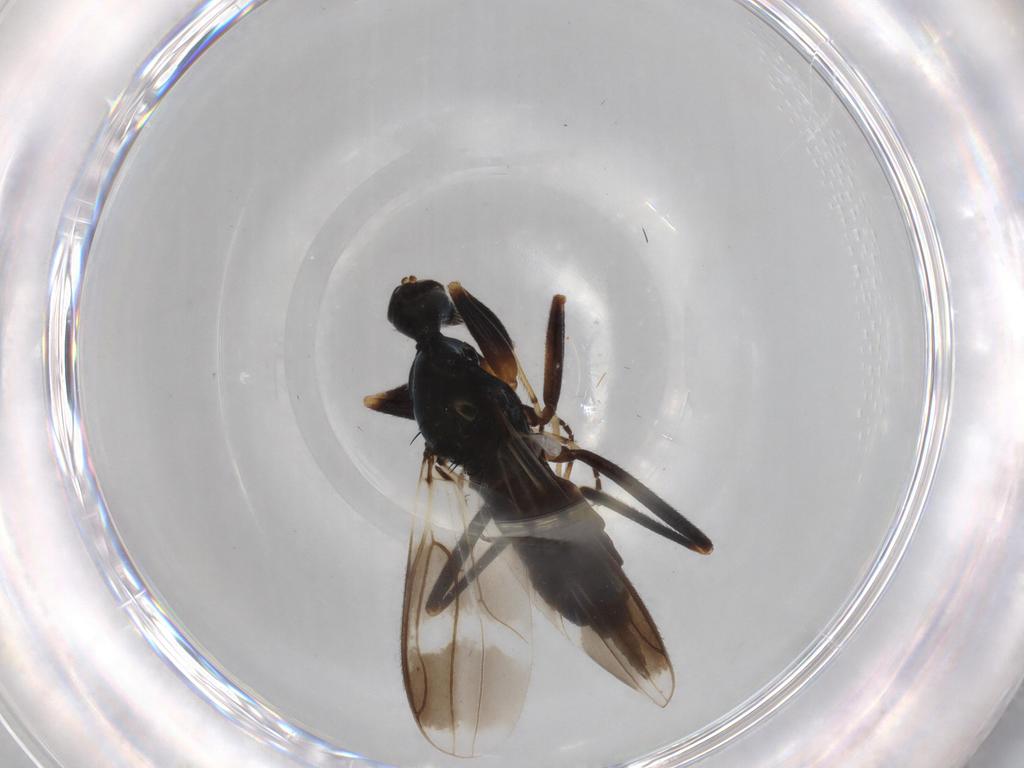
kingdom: Animalia
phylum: Arthropoda
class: Insecta
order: Diptera
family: Hybotidae
